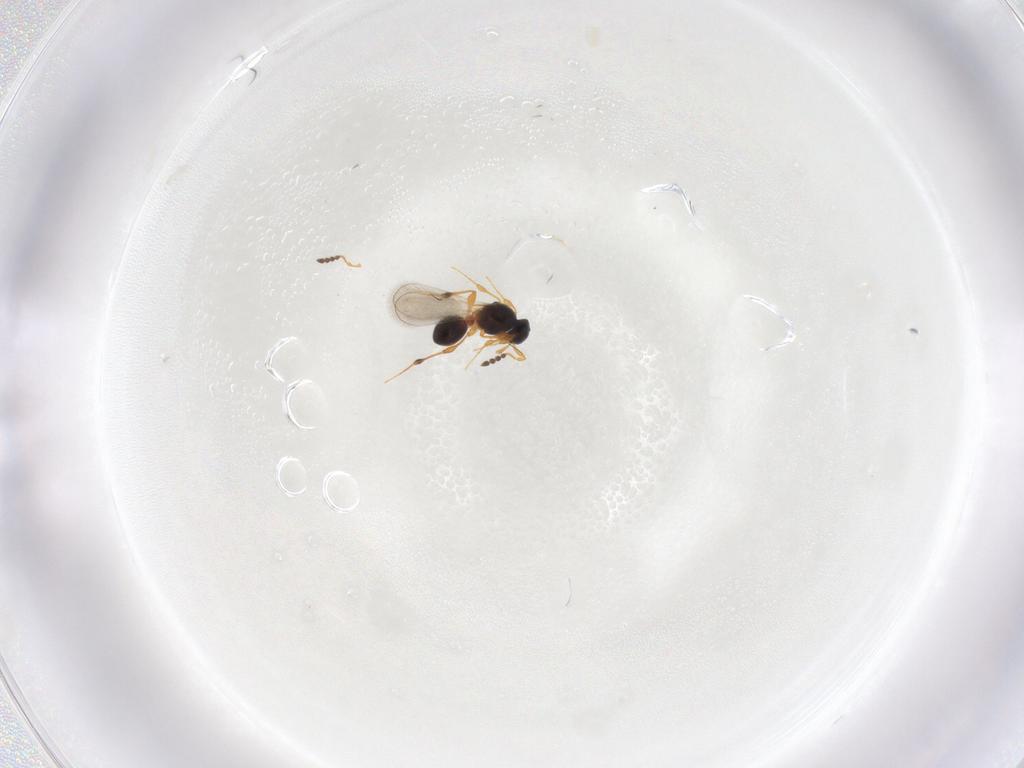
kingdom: Animalia
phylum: Arthropoda
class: Insecta
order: Hymenoptera
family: Platygastridae
